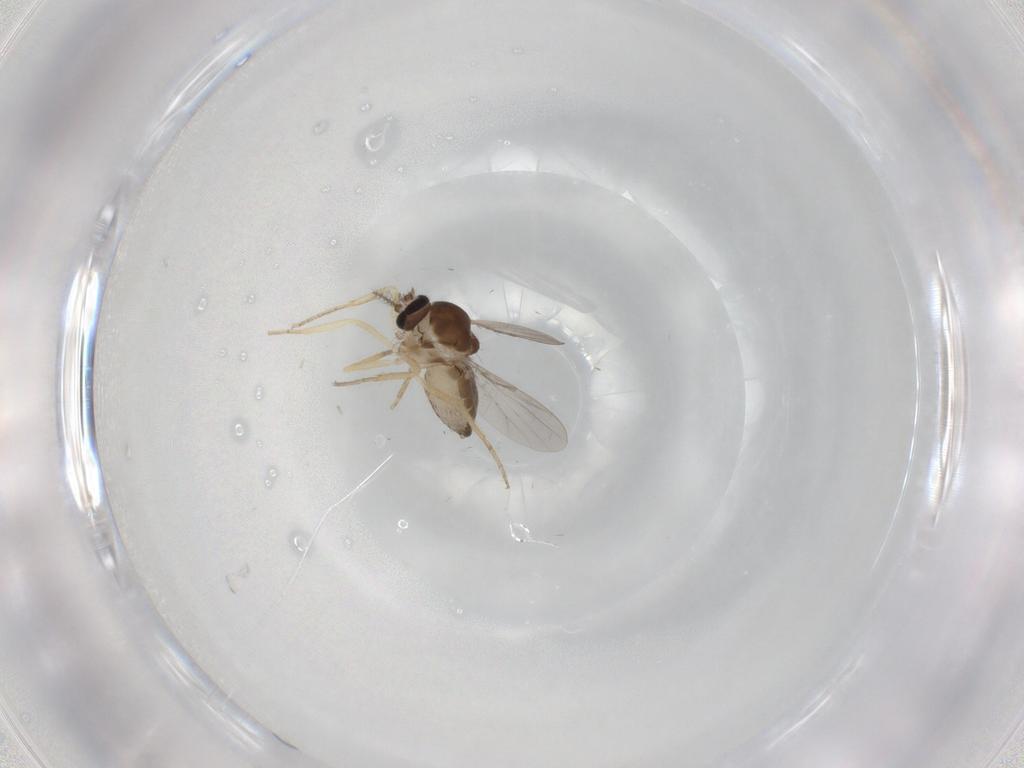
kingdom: Animalia
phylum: Arthropoda
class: Insecta
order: Diptera
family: Ceratopogonidae
